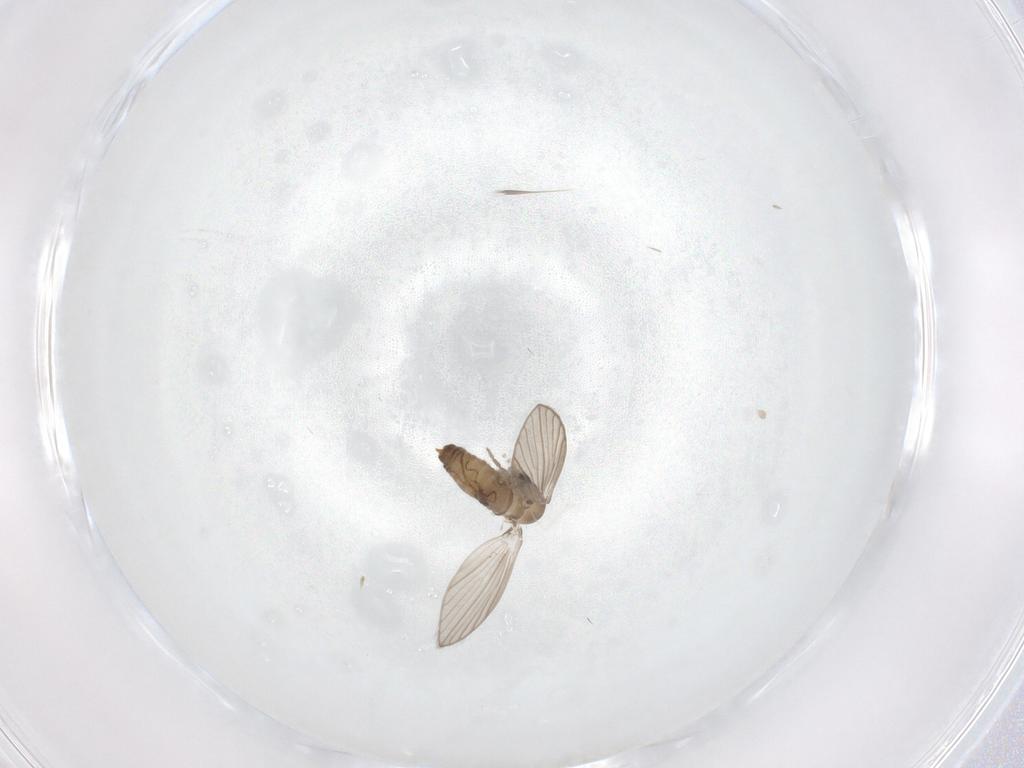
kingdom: Animalia
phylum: Arthropoda
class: Insecta
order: Diptera
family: Psychodidae
